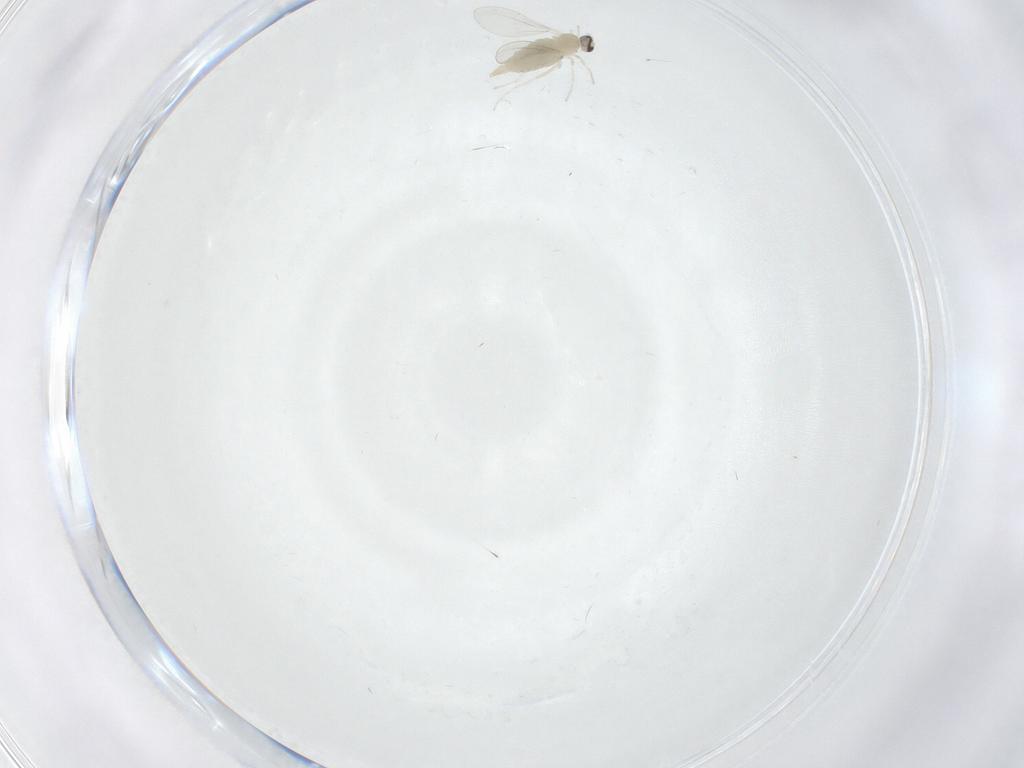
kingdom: Animalia
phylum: Arthropoda
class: Insecta
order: Diptera
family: Cecidomyiidae
